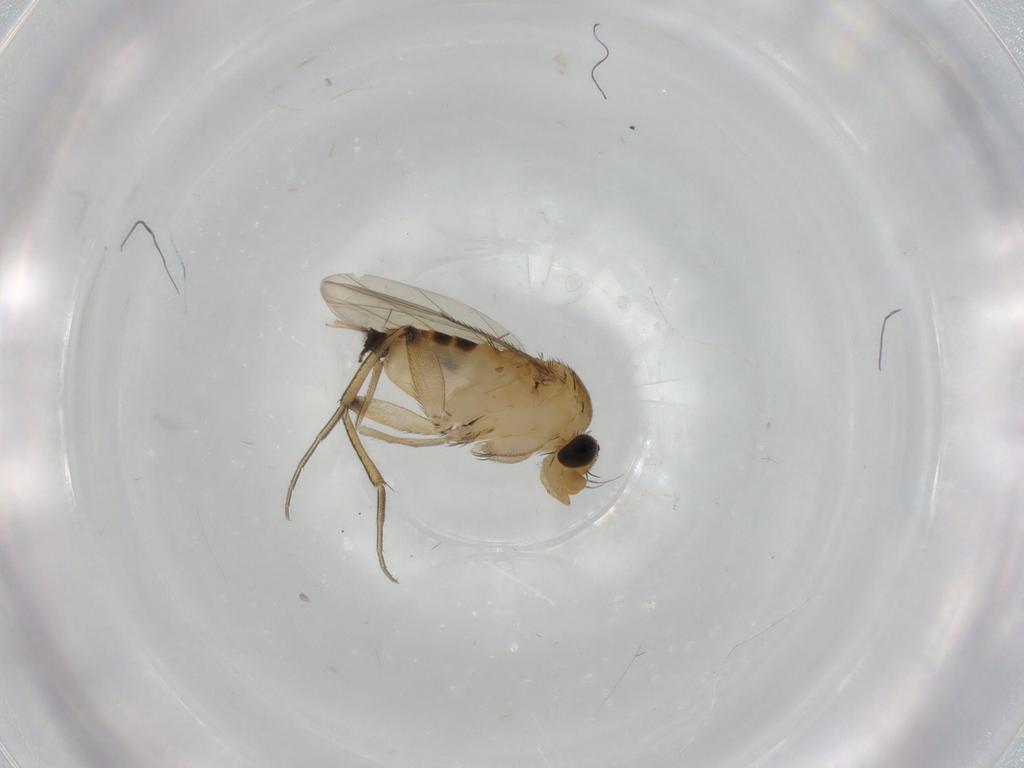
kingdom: Animalia
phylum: Arthropoda
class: Insecta
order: Diptera
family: Phoridae
